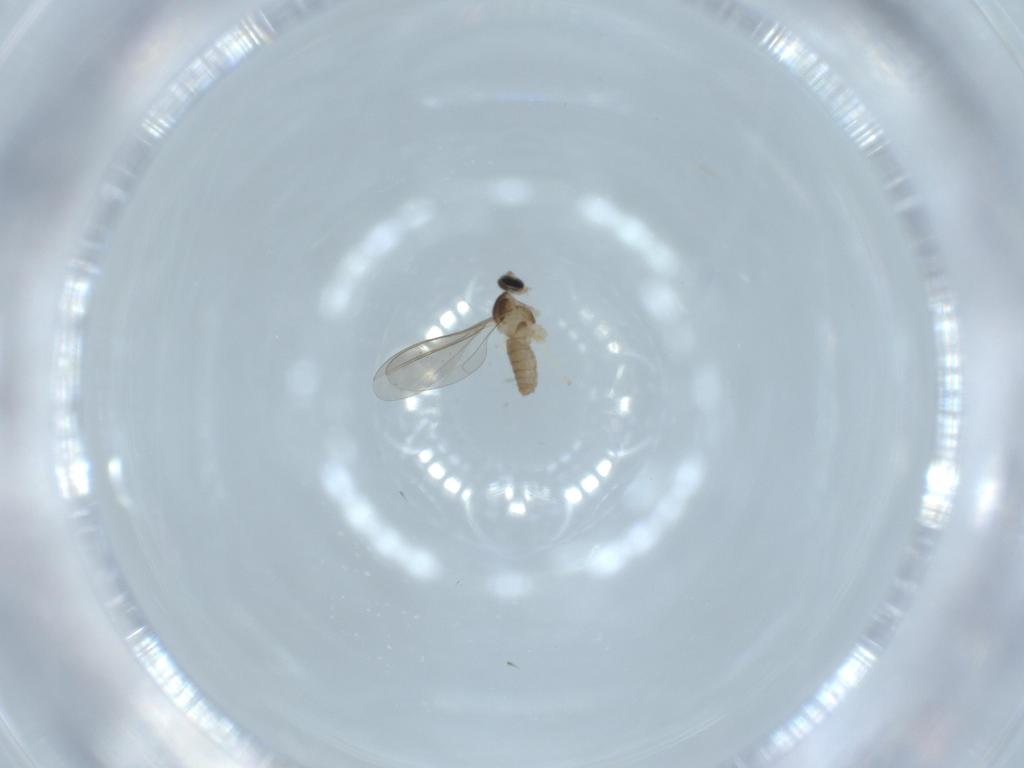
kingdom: Animalia
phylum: Arthropoda
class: Insecta
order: Diptera
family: Cecidomyiidae
